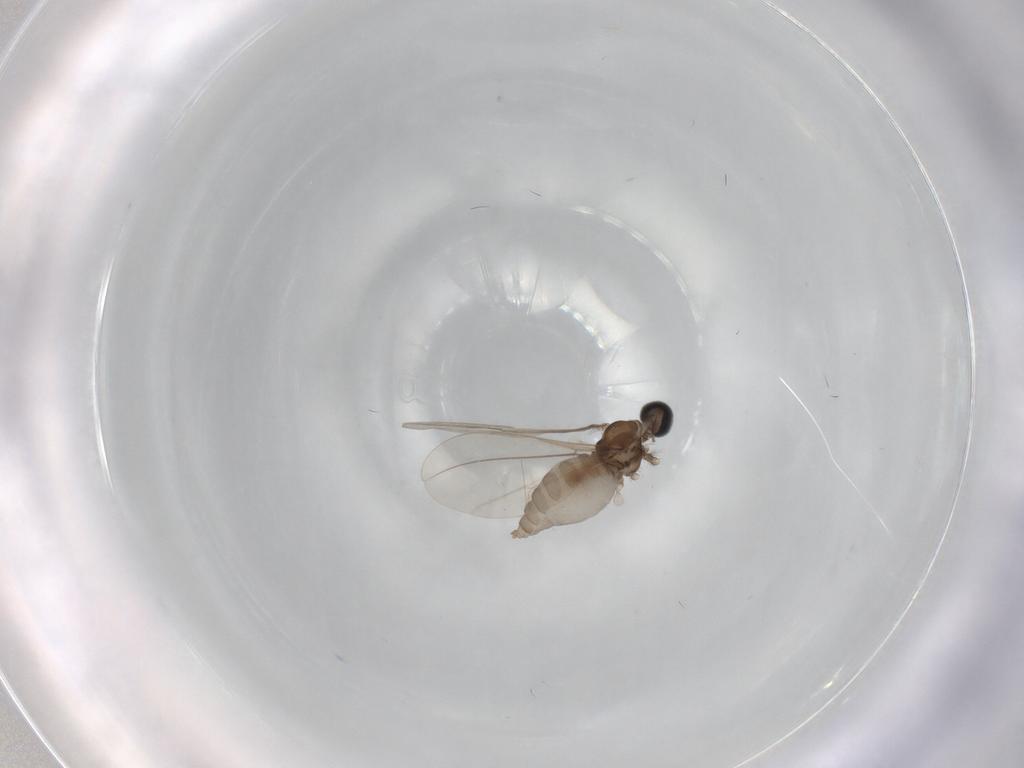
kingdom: Animalia
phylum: Arthropoda
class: Insecta
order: Diptera
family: Cecidomyiidae
